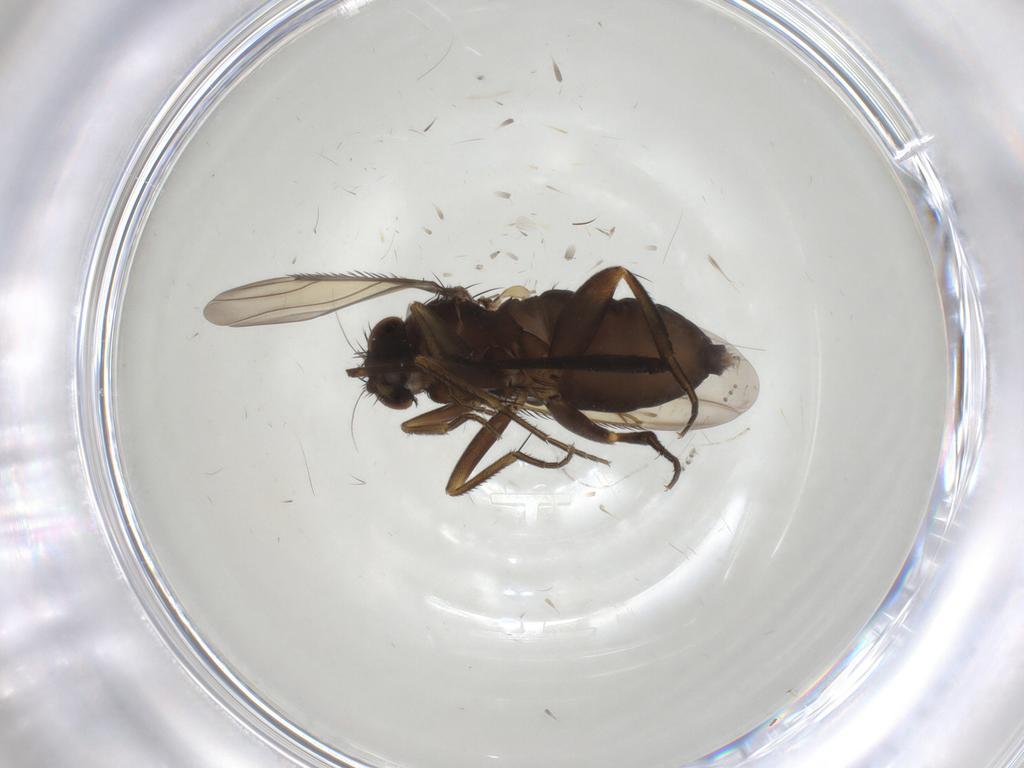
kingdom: Animalia
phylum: Arthropoda
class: Insecta
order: Diptera
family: Phoridae
